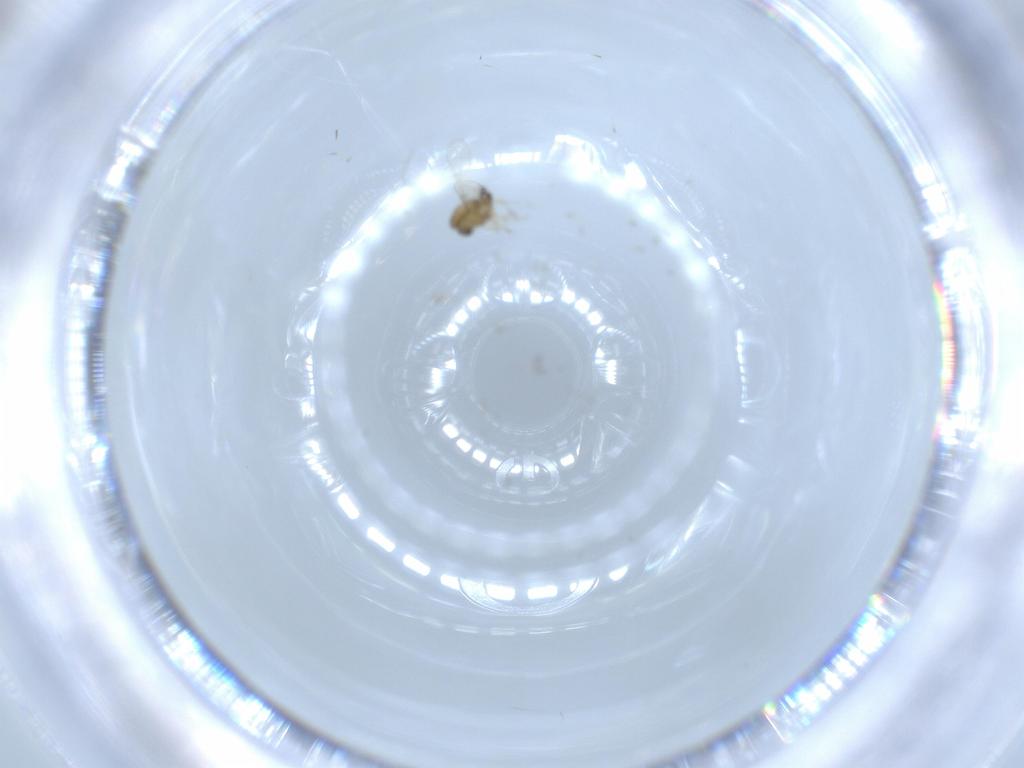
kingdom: Animalia
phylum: Arthropoda
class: Insecta
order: Diptera
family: Chironomidae
